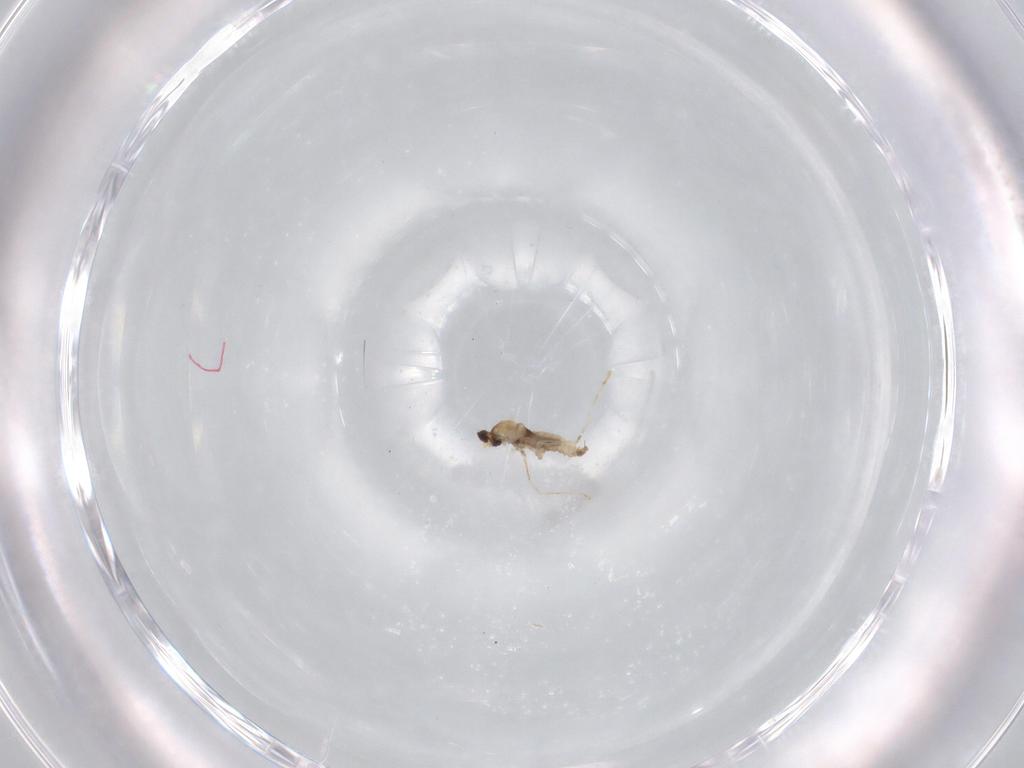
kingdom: Animalia
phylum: Arthropoda
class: Insecta
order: Diptera
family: Cecidomyiidae
